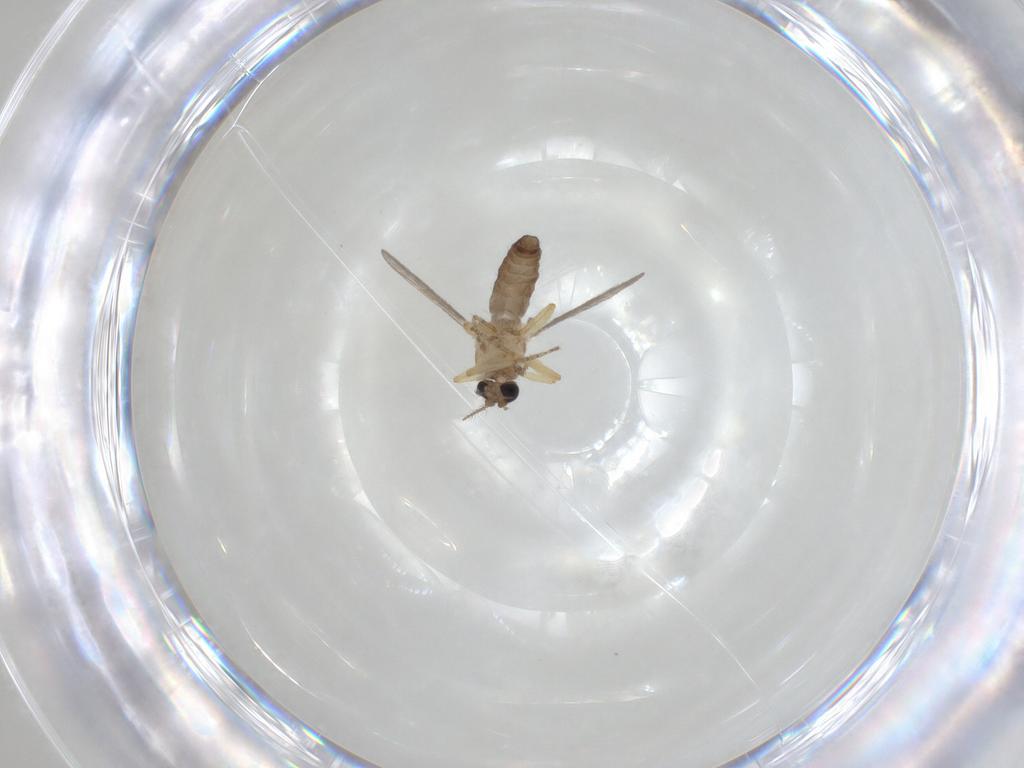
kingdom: Animalia
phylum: Arthropoda
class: Insecta
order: Diptera
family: Ceratopogonidae
